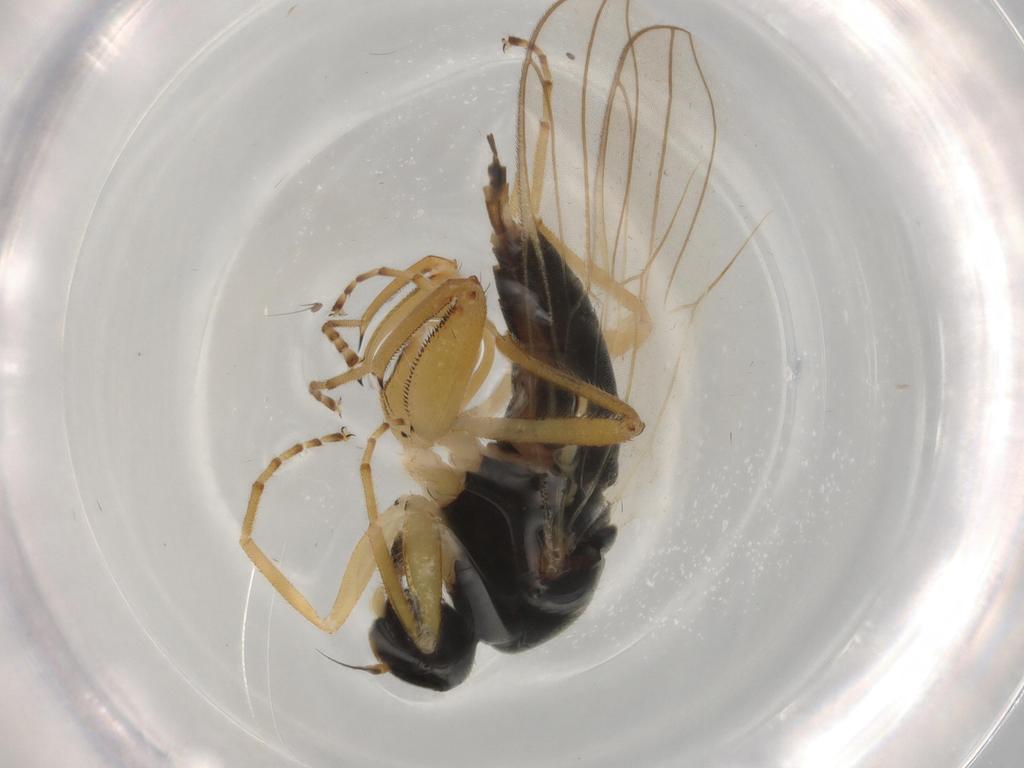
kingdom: Animalia
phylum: Arthropoda
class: Insecta
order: Diptera
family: Hybotidae
